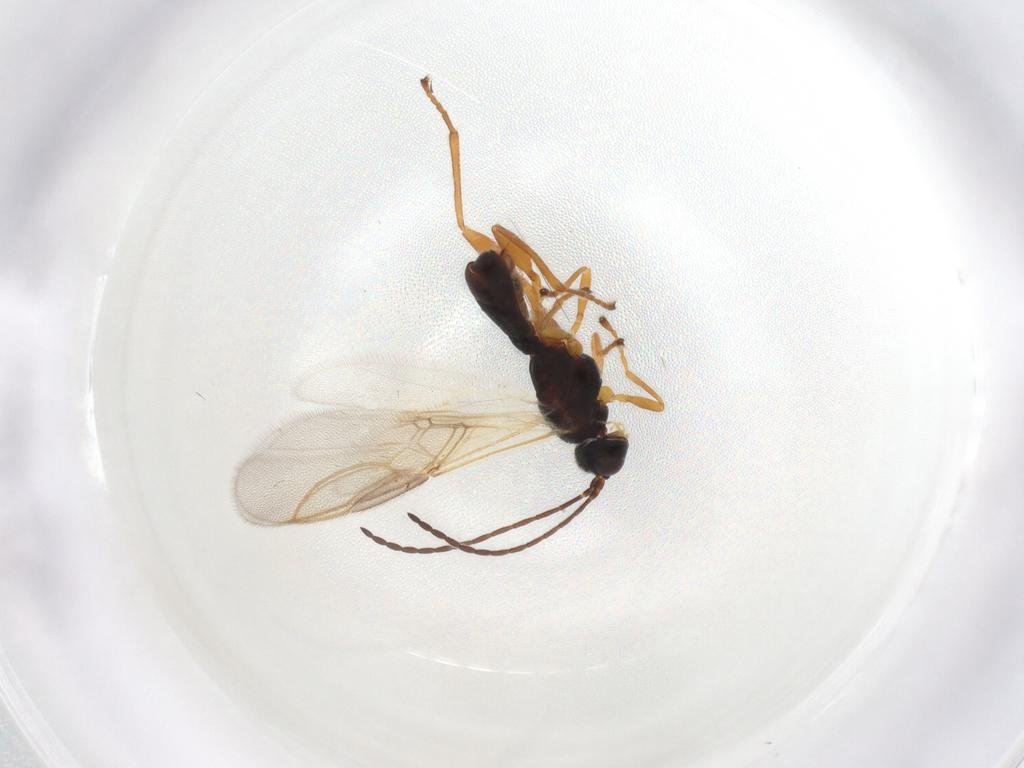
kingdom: Animalia
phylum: Arthropoda
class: Insecta
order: Hymenoptera
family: Braconidae
